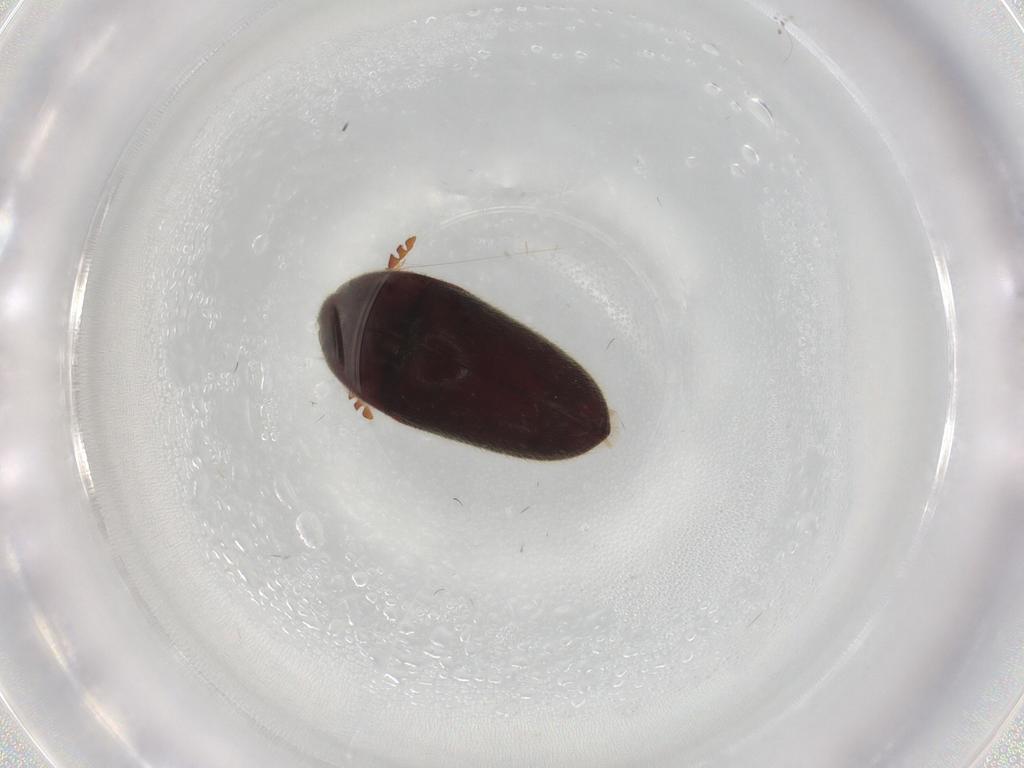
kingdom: Animalia
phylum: Arthropoda
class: Insecta
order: Coleoptera
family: Throscidae
